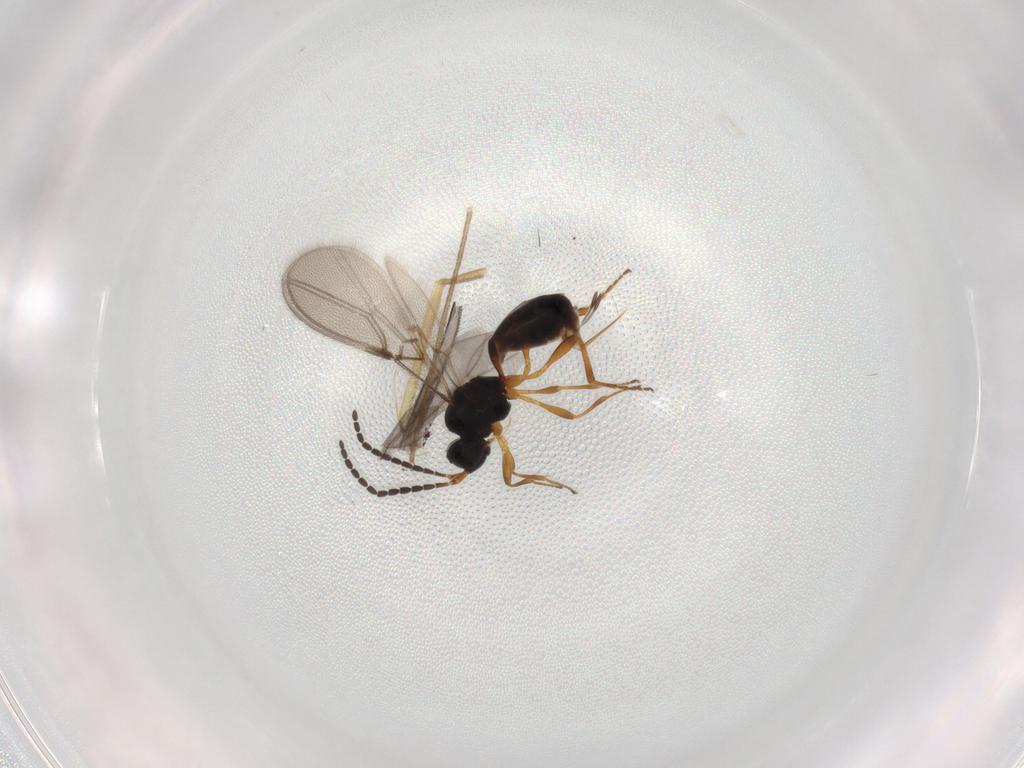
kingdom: Animalia
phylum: Arthropoda
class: Insecta
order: Hymenoptera
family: Braconidae
